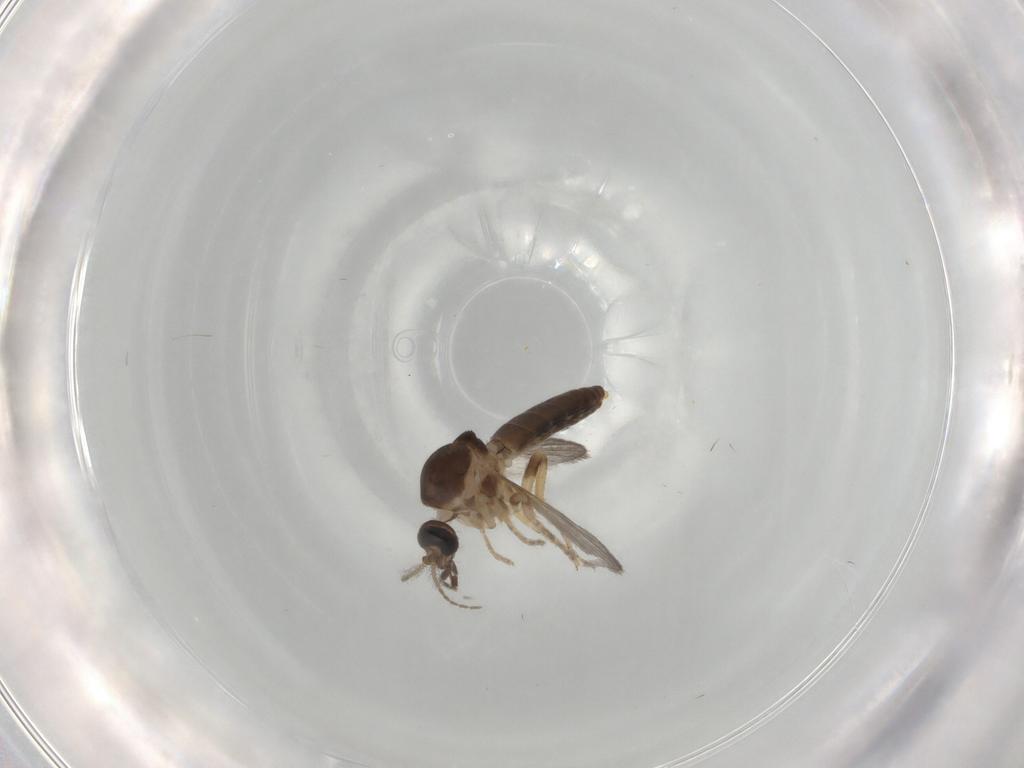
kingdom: Animalia
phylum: Arthropoda
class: Insecta
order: Diptera
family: Ceratopogonidae
